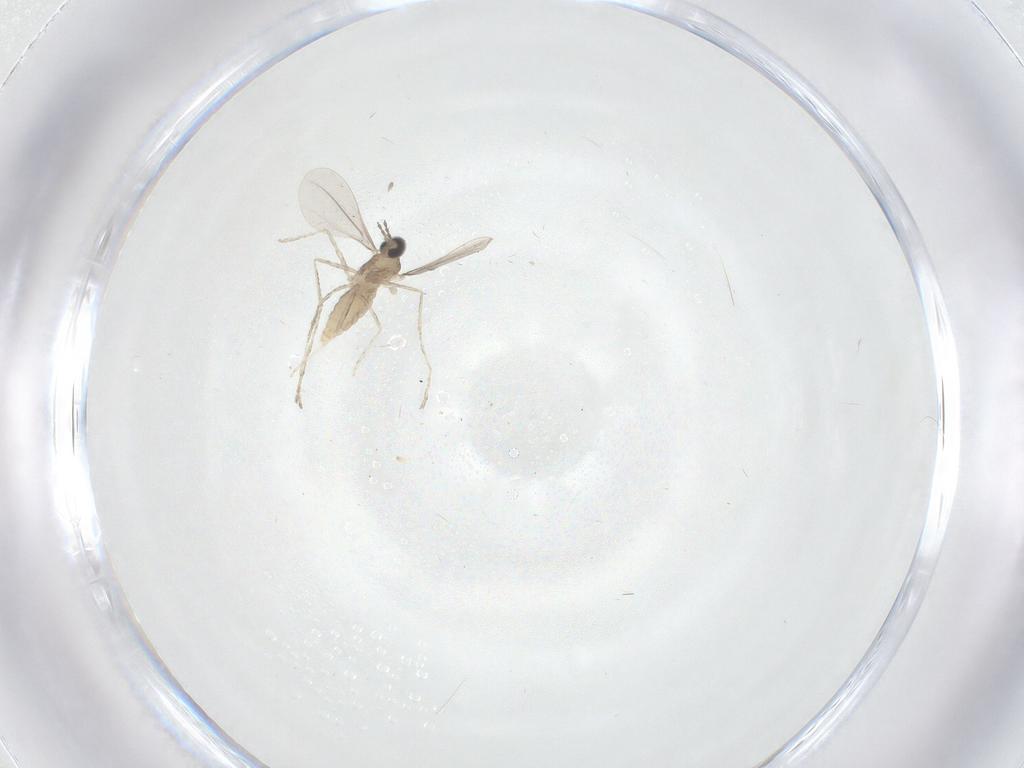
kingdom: Animalia
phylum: Arthropoda
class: Insecta
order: Diptera
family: Cecidomyiidae
